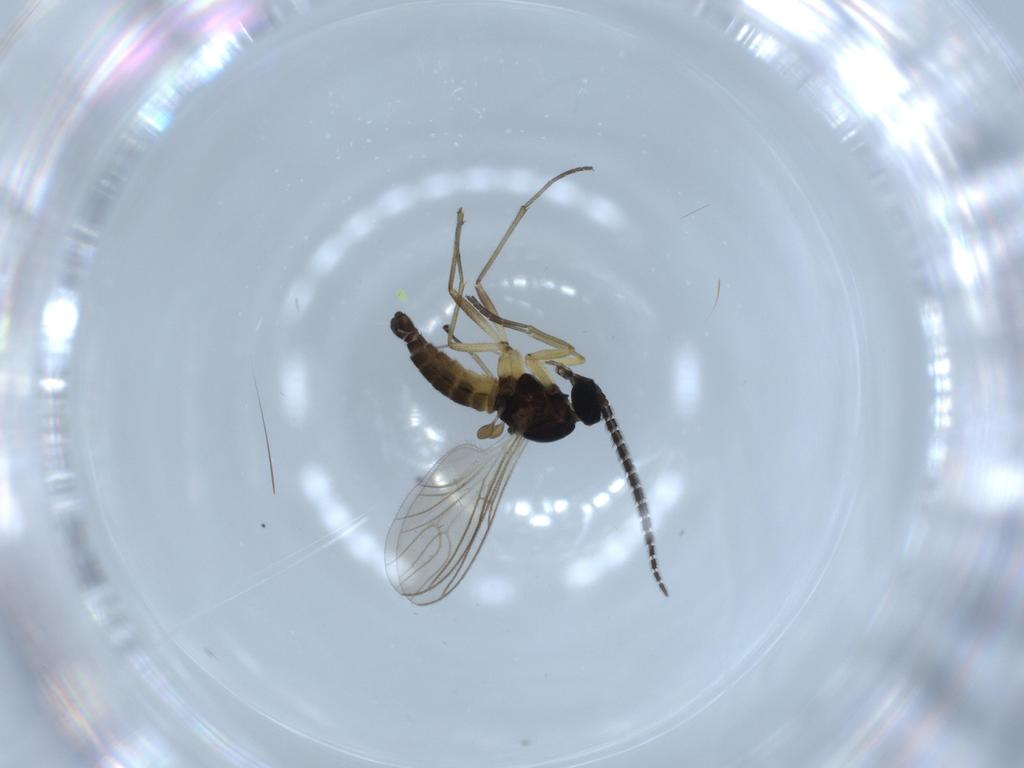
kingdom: Animalia
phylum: Arthropoda
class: Insecta
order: Diptera
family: Sciaridae
